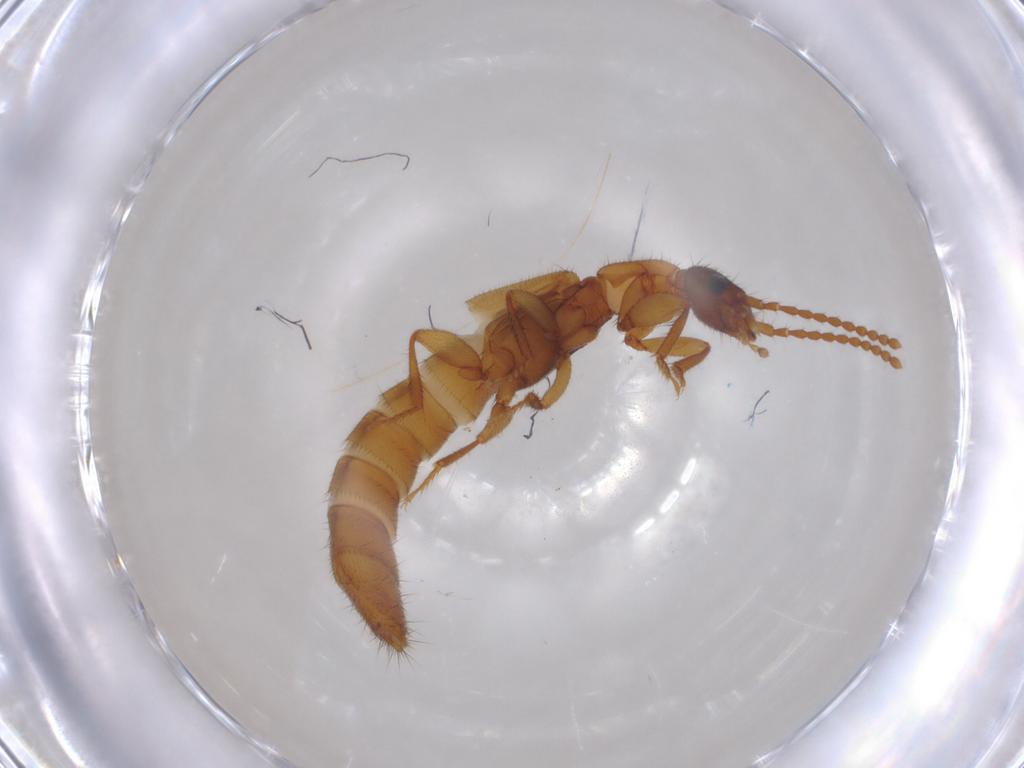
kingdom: Animalia
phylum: Arthropoda
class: Insecta
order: Coleoptera
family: Staphylinidae
